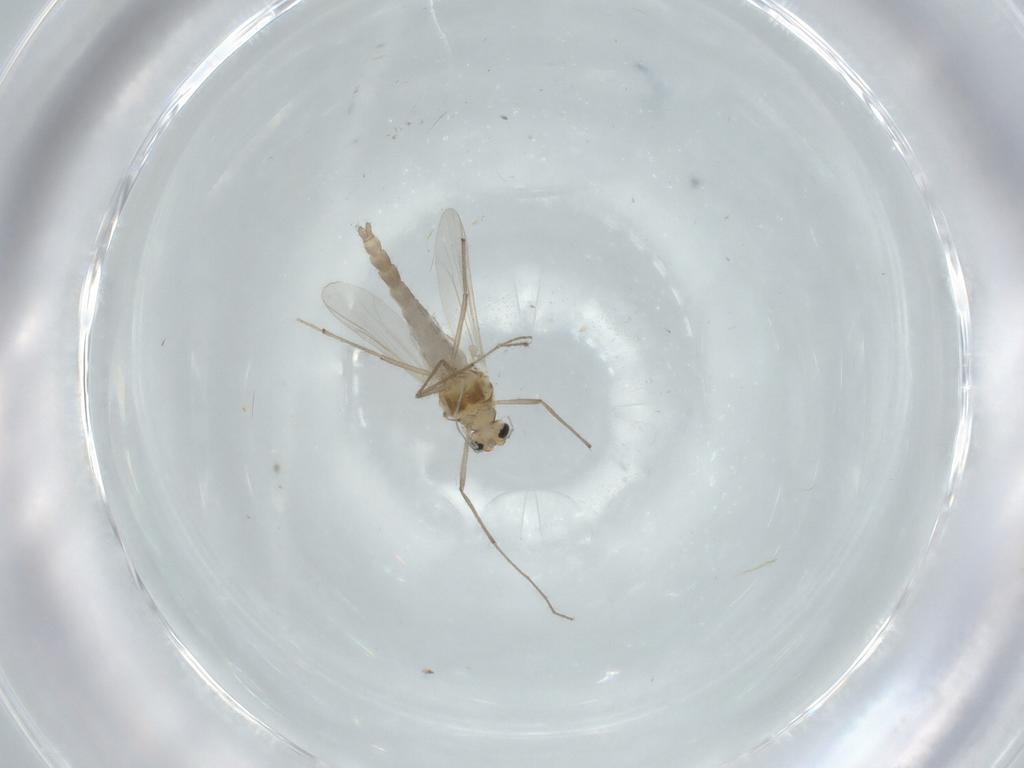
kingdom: Animalia
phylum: Arthropoda
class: Insecta
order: Diptera
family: Chironomidae
